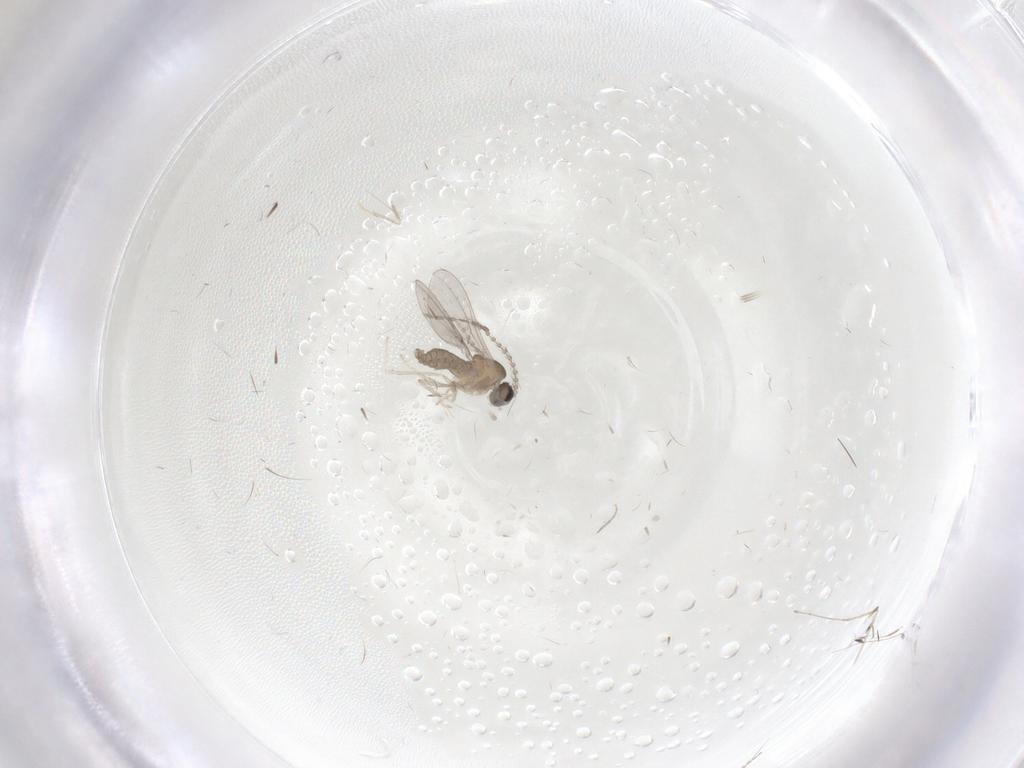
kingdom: Animalia
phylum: Arthropoda
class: Insecta
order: Diptera
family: Cecidomyiidae
